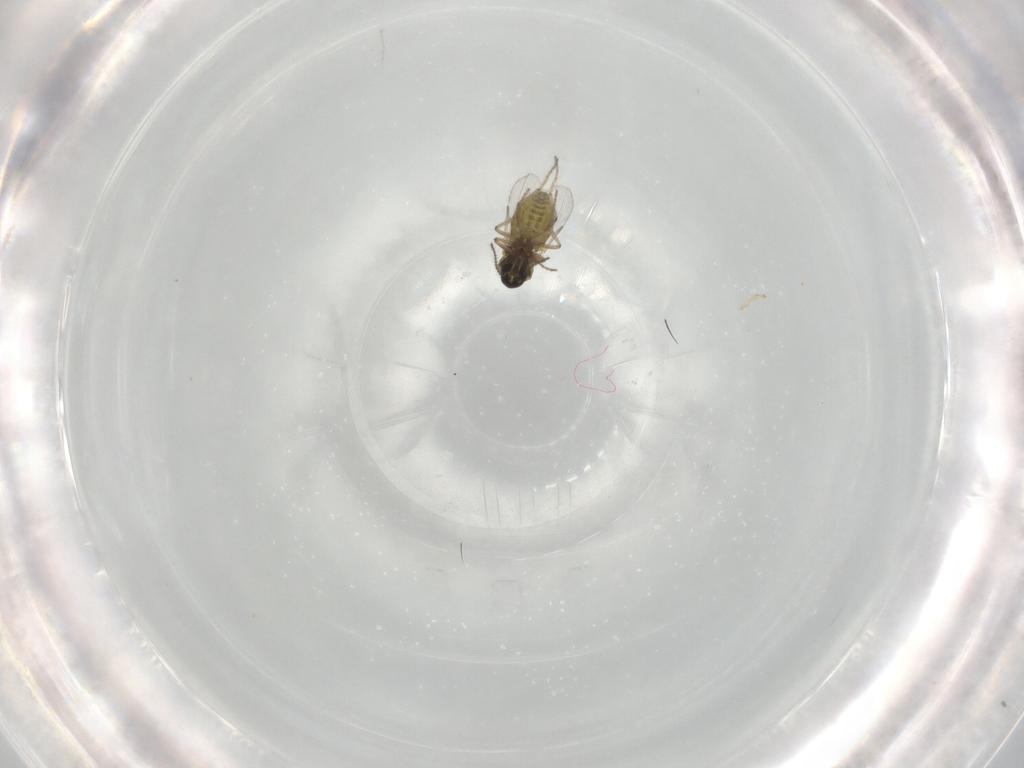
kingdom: Animalia
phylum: Arthropoda
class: Insecta
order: Diptera
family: Ceratopogonidae
